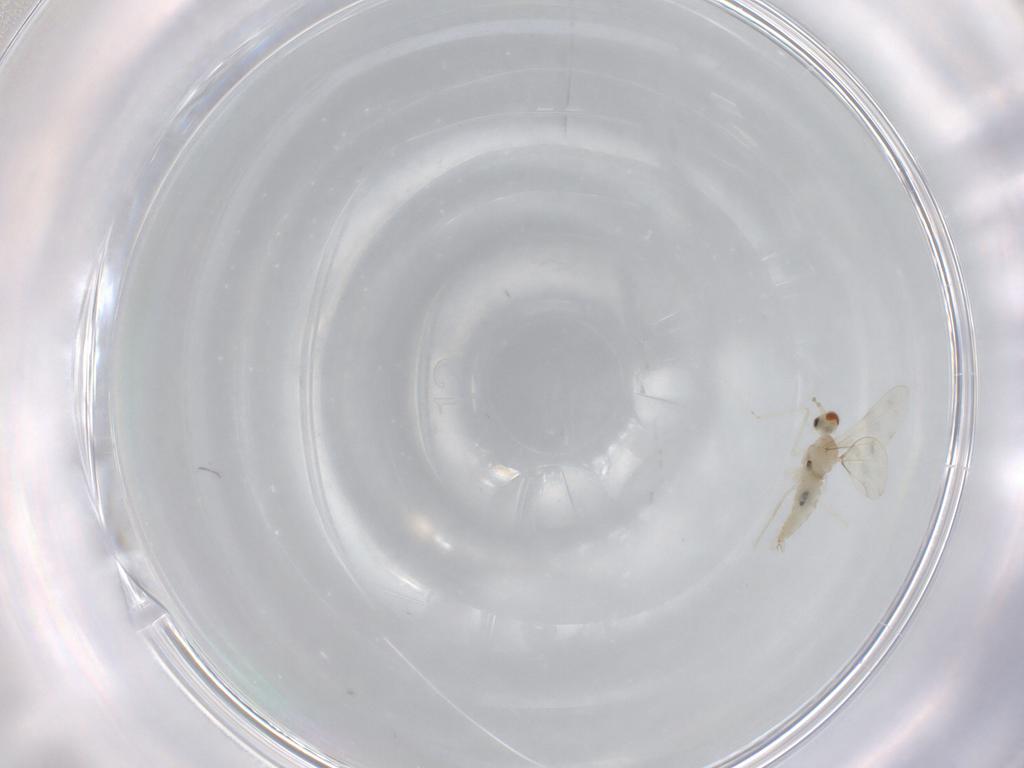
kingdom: Animalia
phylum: Arthropoda
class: Insecta
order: Diptera
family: Cecidomyiidae
